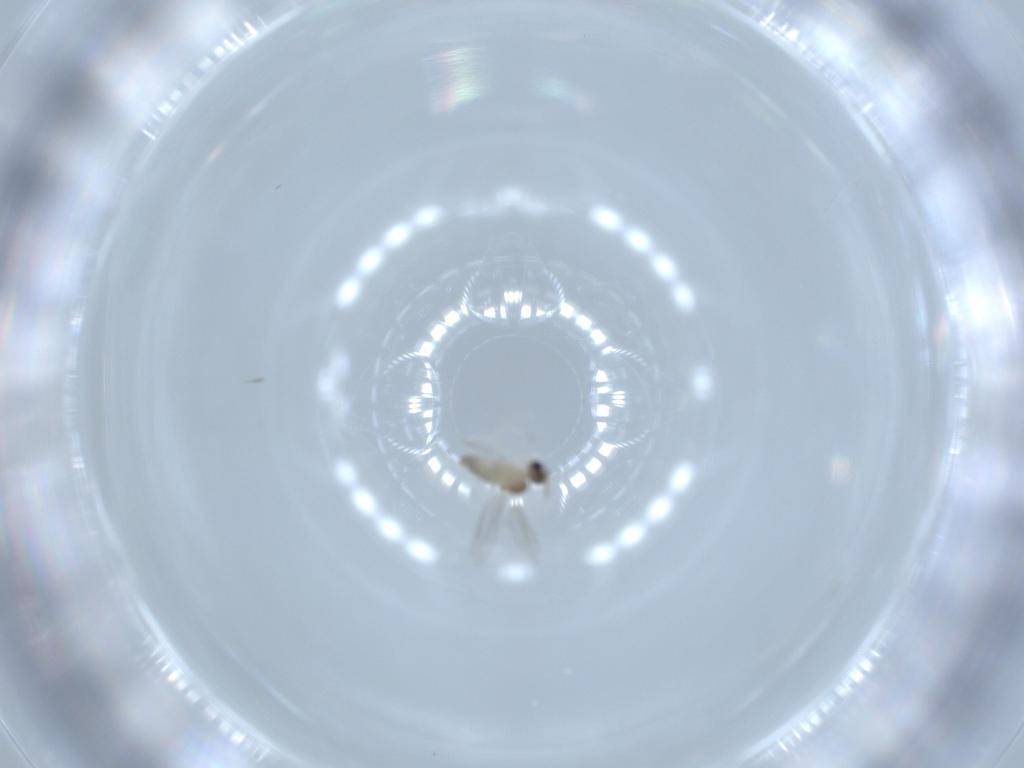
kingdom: Animalia
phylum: Arthropoda
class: Insecta
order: Diptera
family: Cecidomyiidae
